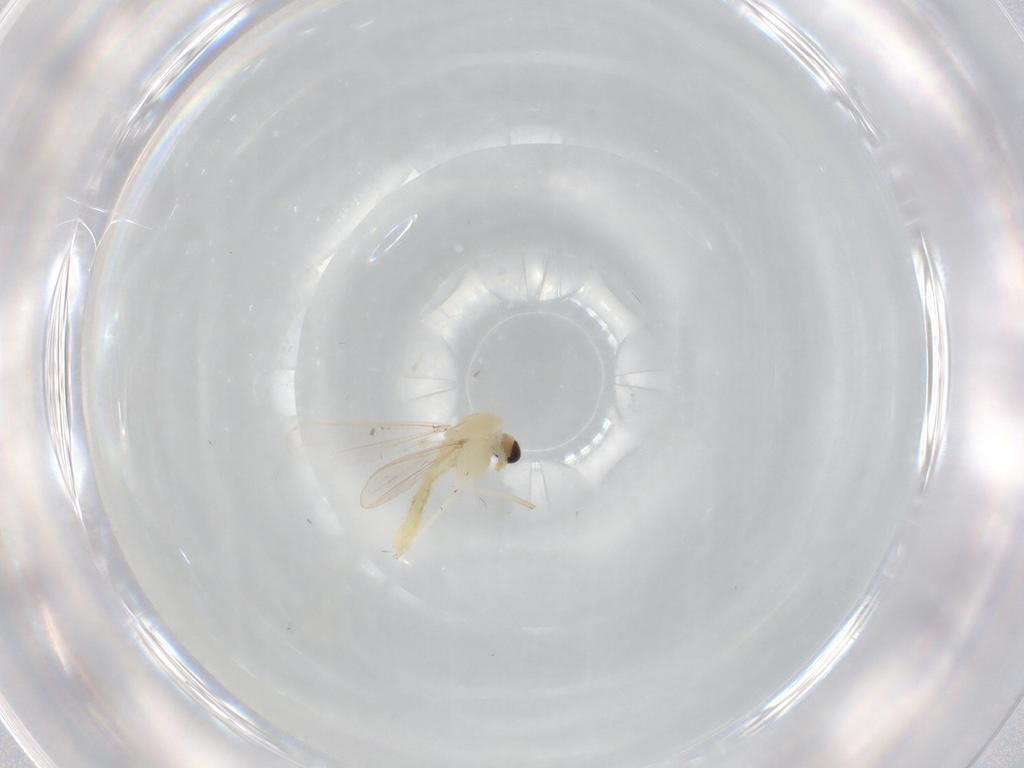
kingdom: Animalia
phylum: Arthropoda
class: Insecta
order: Diptera
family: Chironomidae
